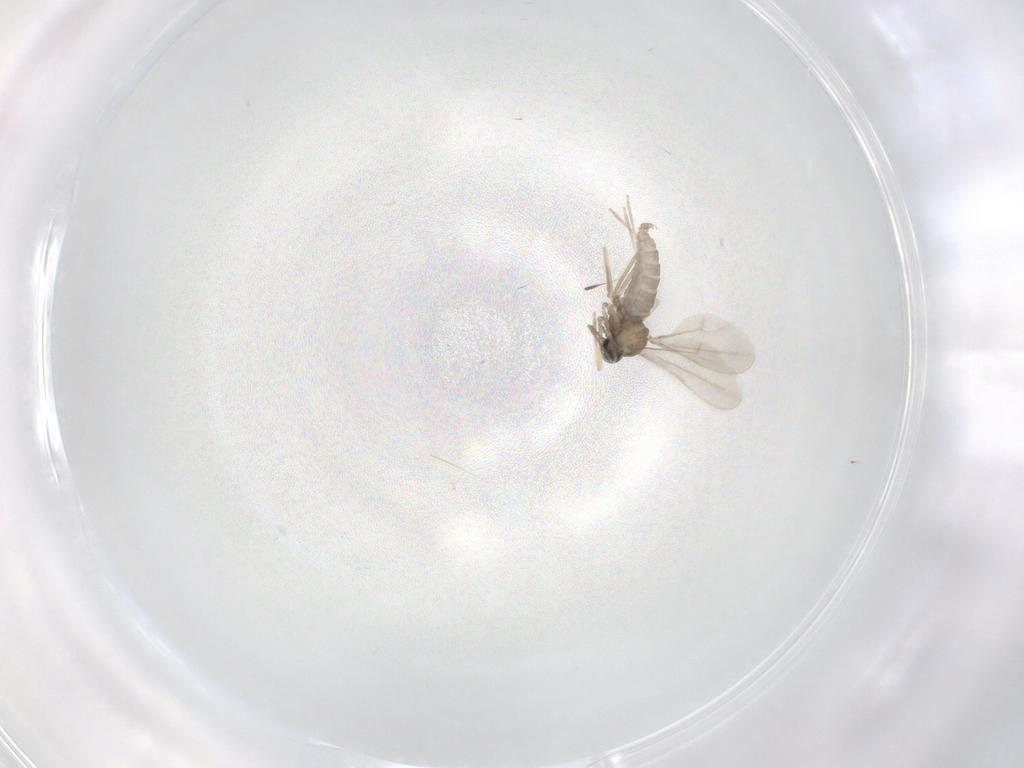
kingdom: Animalia
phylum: Arthropoda
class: Insecta
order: Diptera
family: Cecidomyiidae
